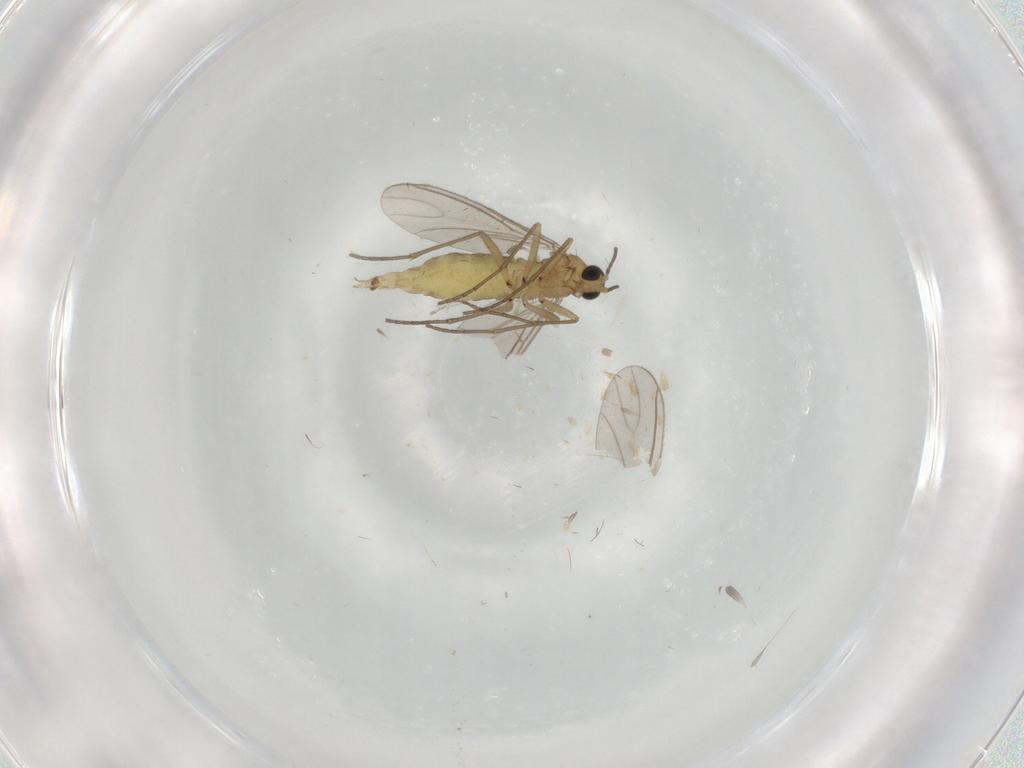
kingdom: Animalia
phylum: Arthropoda
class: Insecta
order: Diptera
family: Sciaridae
